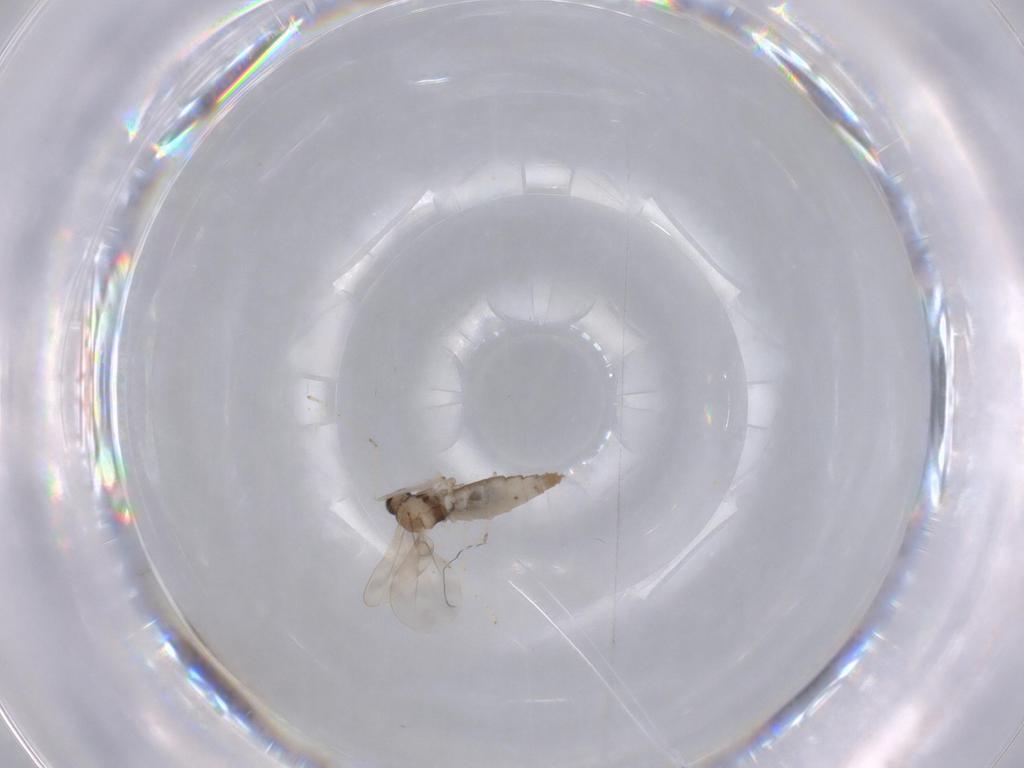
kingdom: Animalia
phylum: Arthropoda
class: Insecta
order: Diptera
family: Cecidomyiidae
